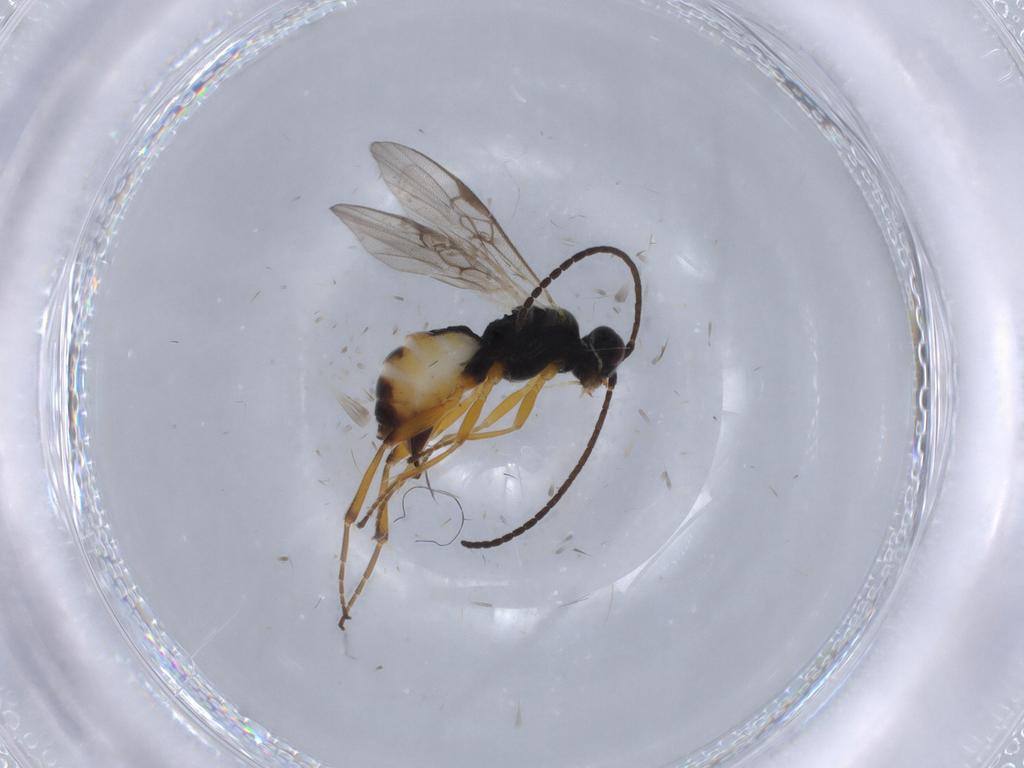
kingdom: Animalia
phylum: Arthropoda
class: Insecta
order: Hymenoptera
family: Braconidae
